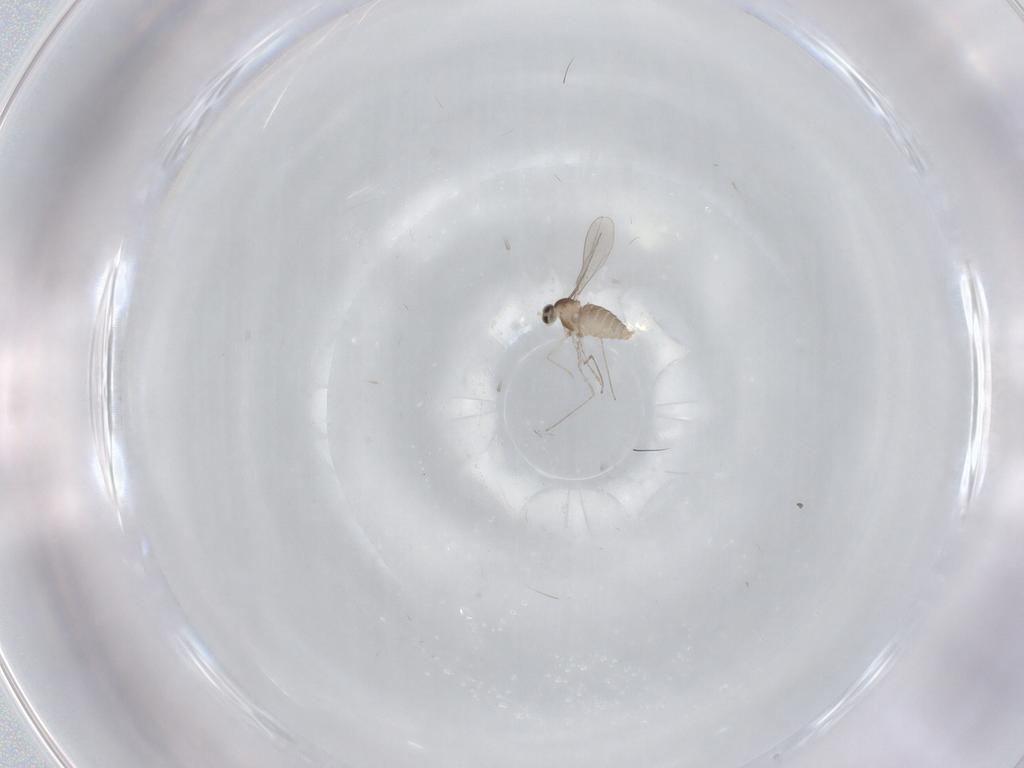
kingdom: Animalia
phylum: Arthropoda
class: Insecta
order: Diptera
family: Cecidomyiidae
